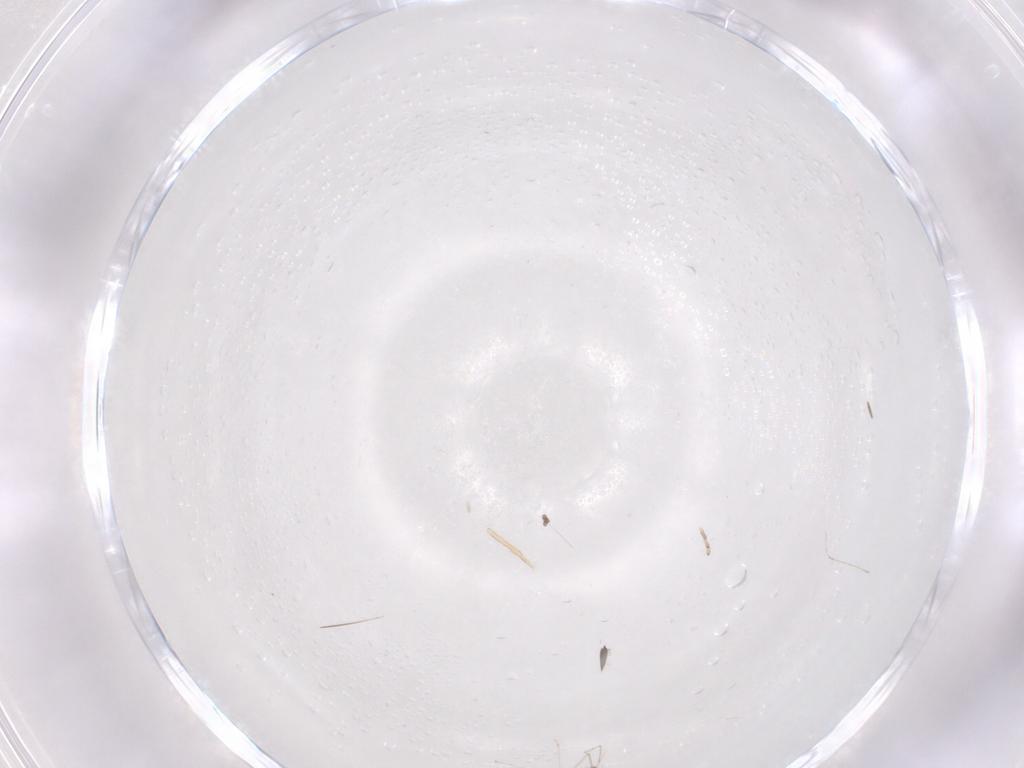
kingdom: Animalia
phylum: Arthropoda
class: Insecta
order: Diptera
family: Cecidomyiidae
